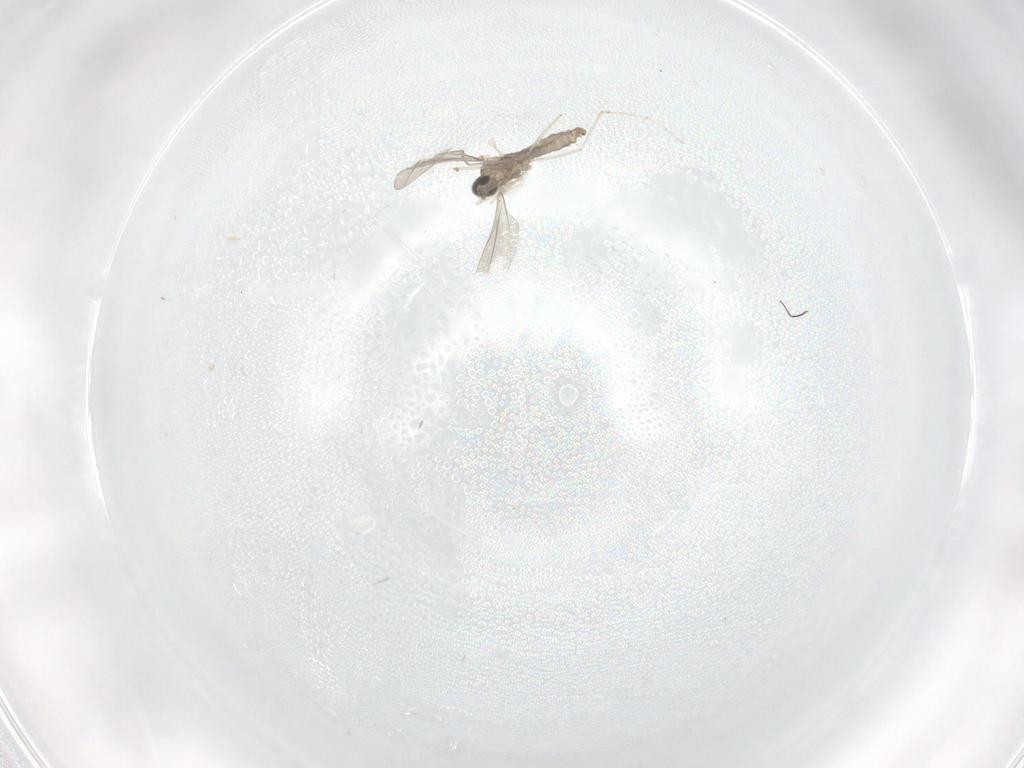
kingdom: Animalia
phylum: Arthropoda
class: Insecta
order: Diptera
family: Cecidomyiidae
